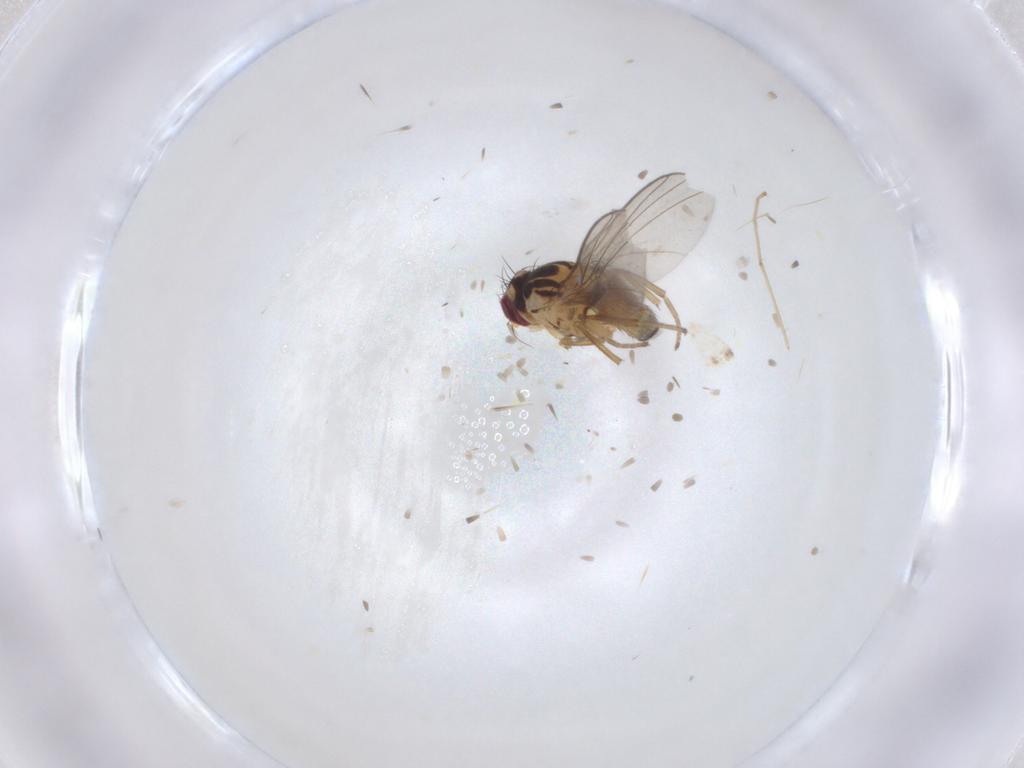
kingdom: Animalia
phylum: Arthropoda
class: Insecta
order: Diptera
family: Agromyzidae
